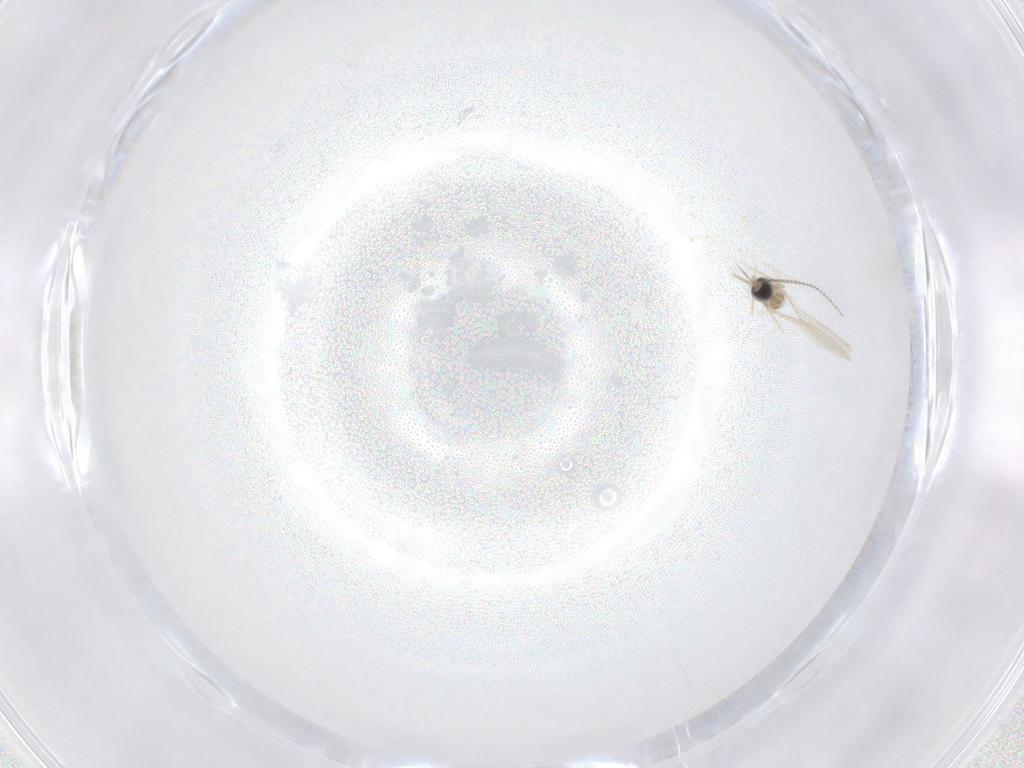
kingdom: Animalia
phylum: Arthropoda
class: Insecta
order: Diptera
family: Cecidomyiidae
